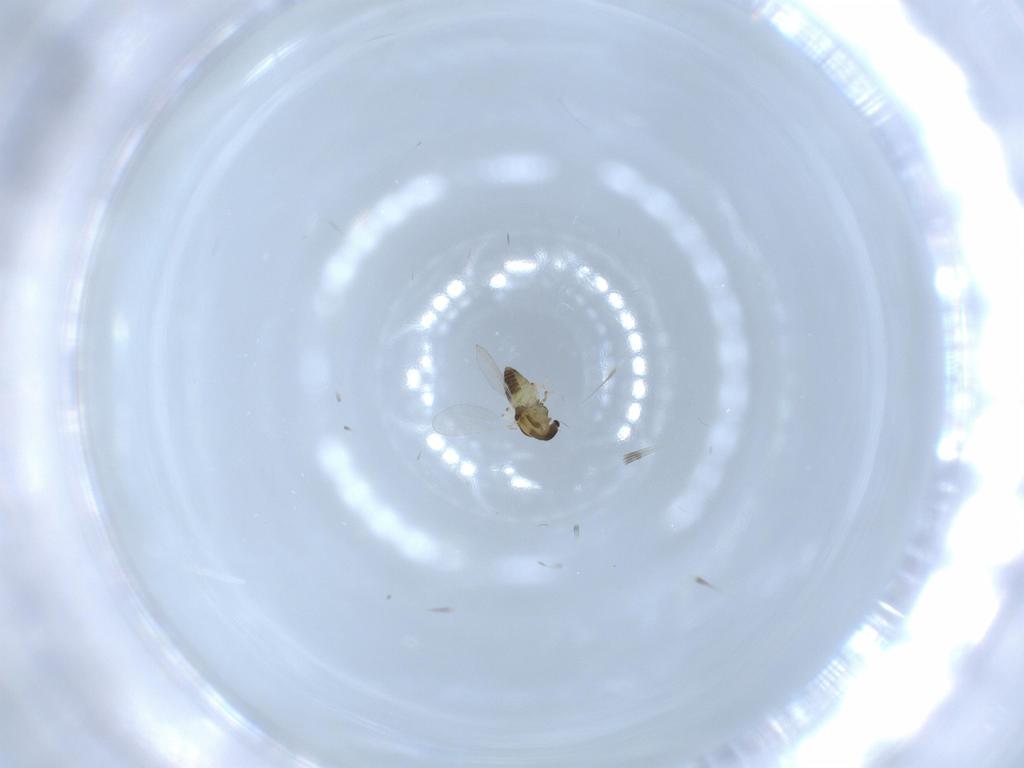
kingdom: Animalia
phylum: Arthropoda
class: Insecta
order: Diptera
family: Chironomidae
